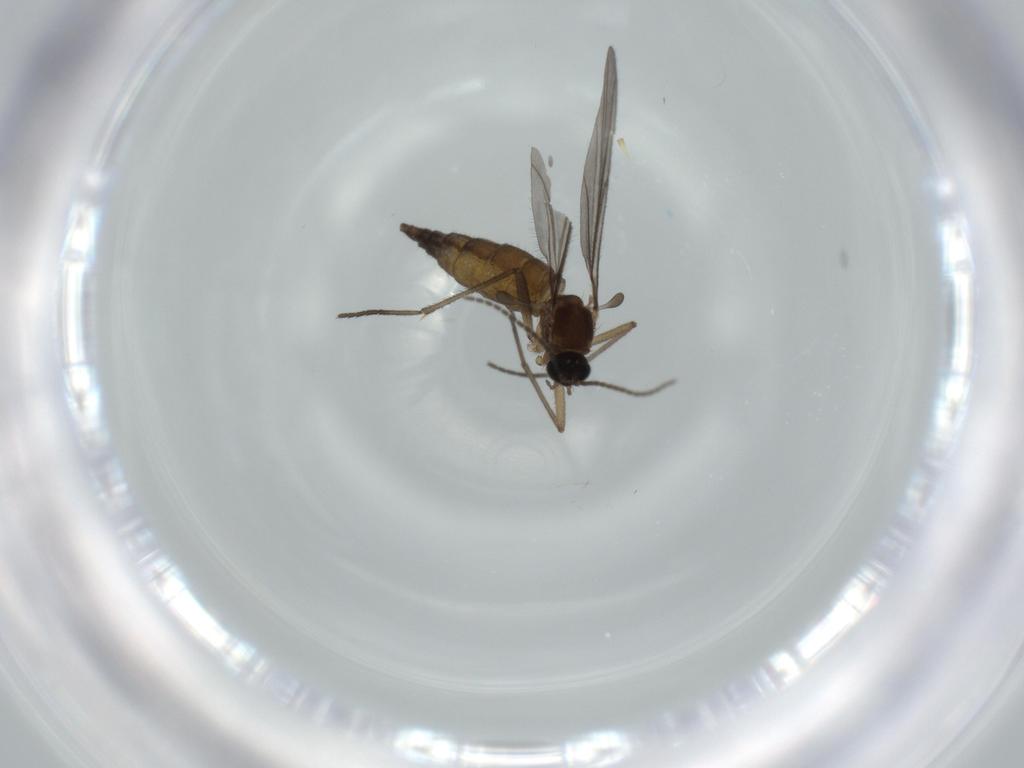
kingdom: Animalia
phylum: Arthropoda
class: Insecta
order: Diptera
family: Sciaridae
